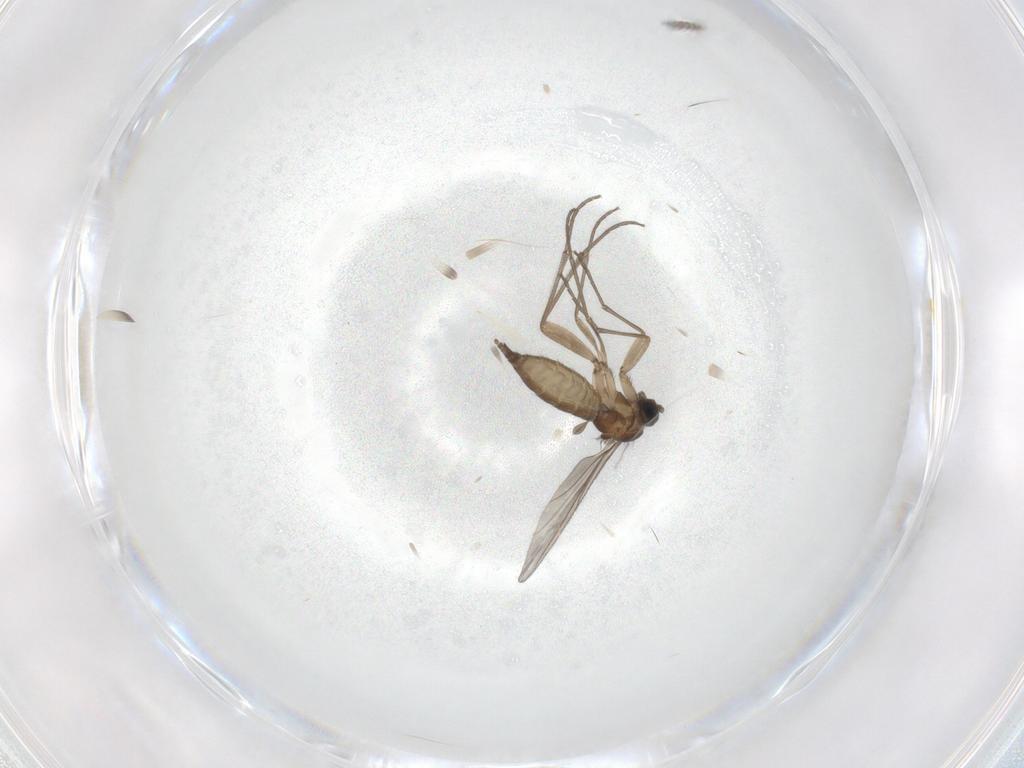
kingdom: Animalia
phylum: Arthropoda
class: Insecta
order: Diptera
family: Sciaridae
